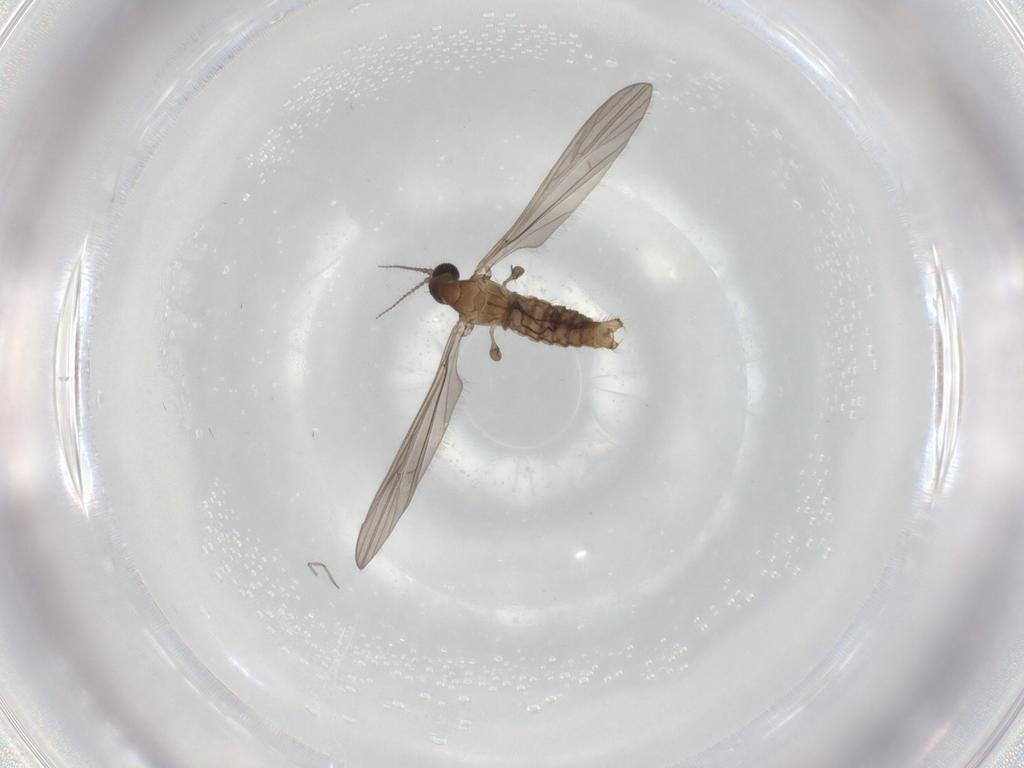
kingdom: Animalia
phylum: Arthropoda
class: Insecta
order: Diptera
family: Limoniidae
